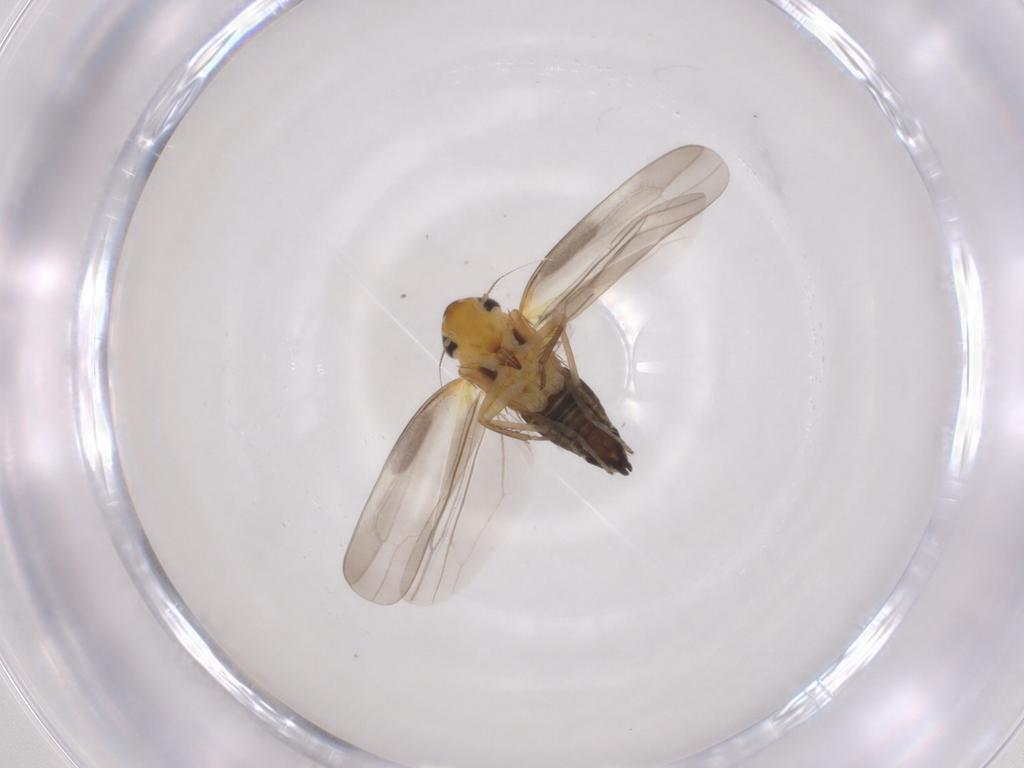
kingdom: Animalia
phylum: Arthropoda
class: Insecta
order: Hemiptera
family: Cicadellidae
